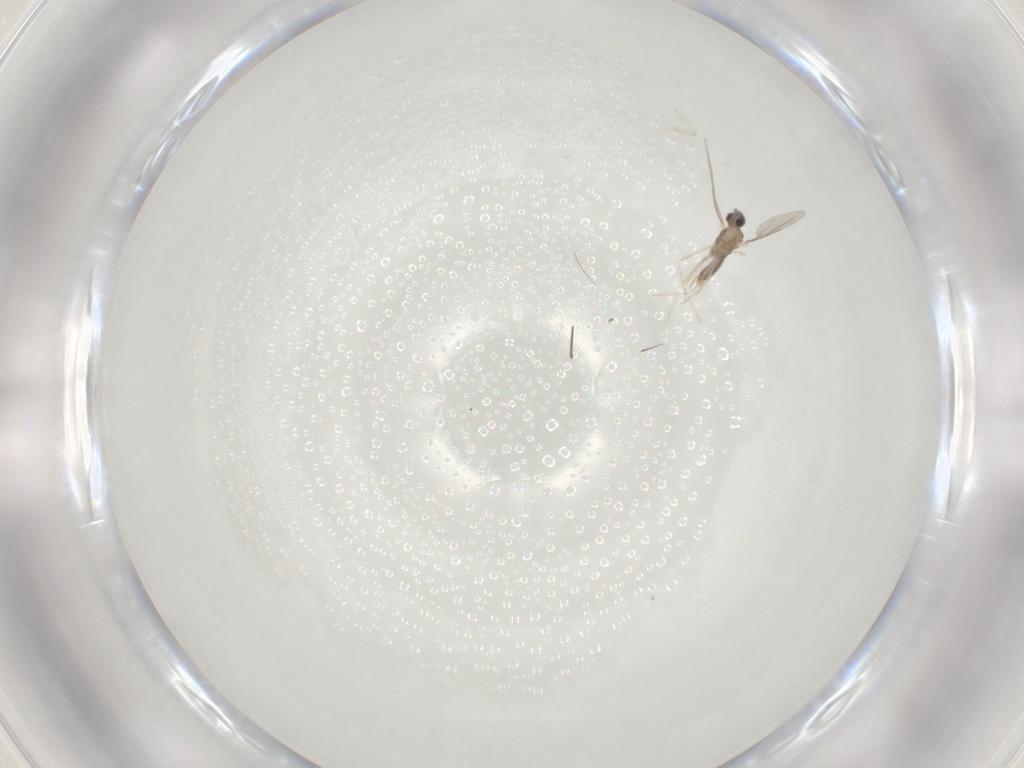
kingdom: Animalia
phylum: Arthropoda
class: Insecta
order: Diptera
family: Chironomidae
